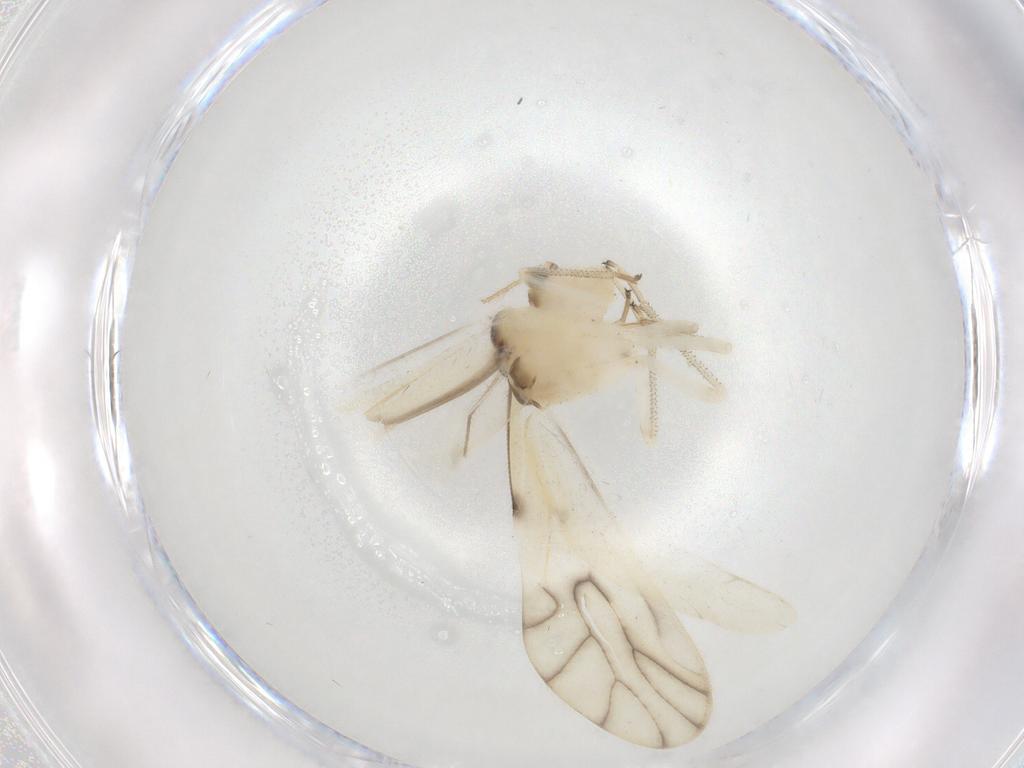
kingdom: Animalia
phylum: Arthropoda
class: Insecta
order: Psocodea
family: Caeciliusidae
